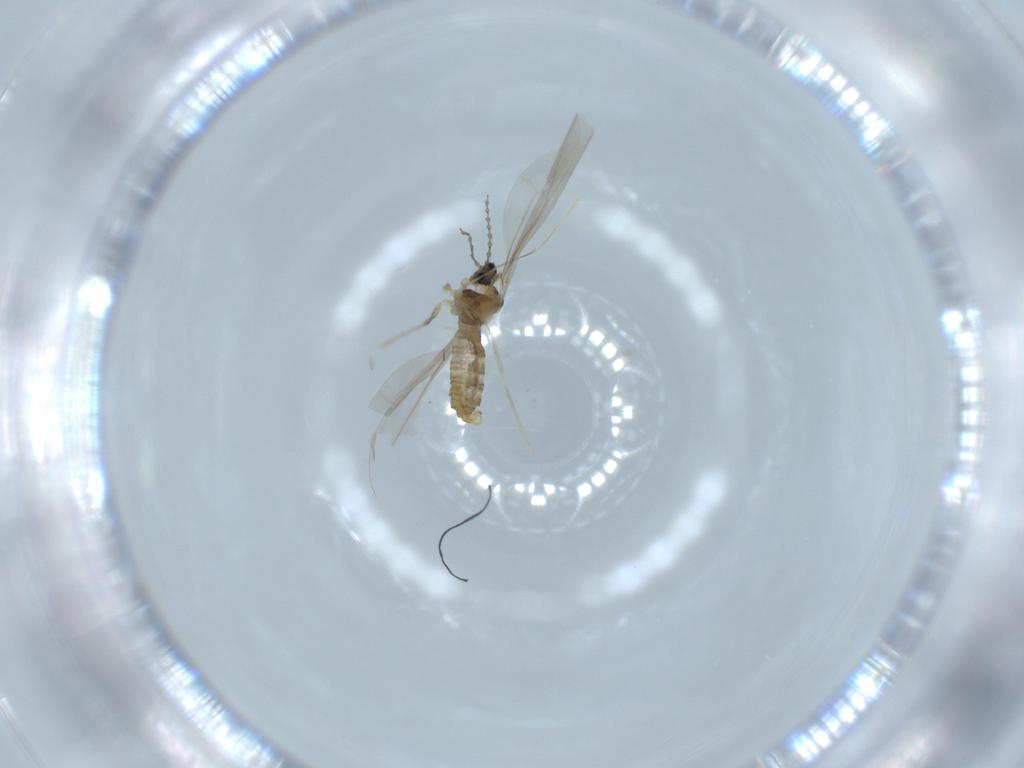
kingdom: Animalia
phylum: Arthropoda
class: Insecta
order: Diptera
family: Cecidomyiidae
